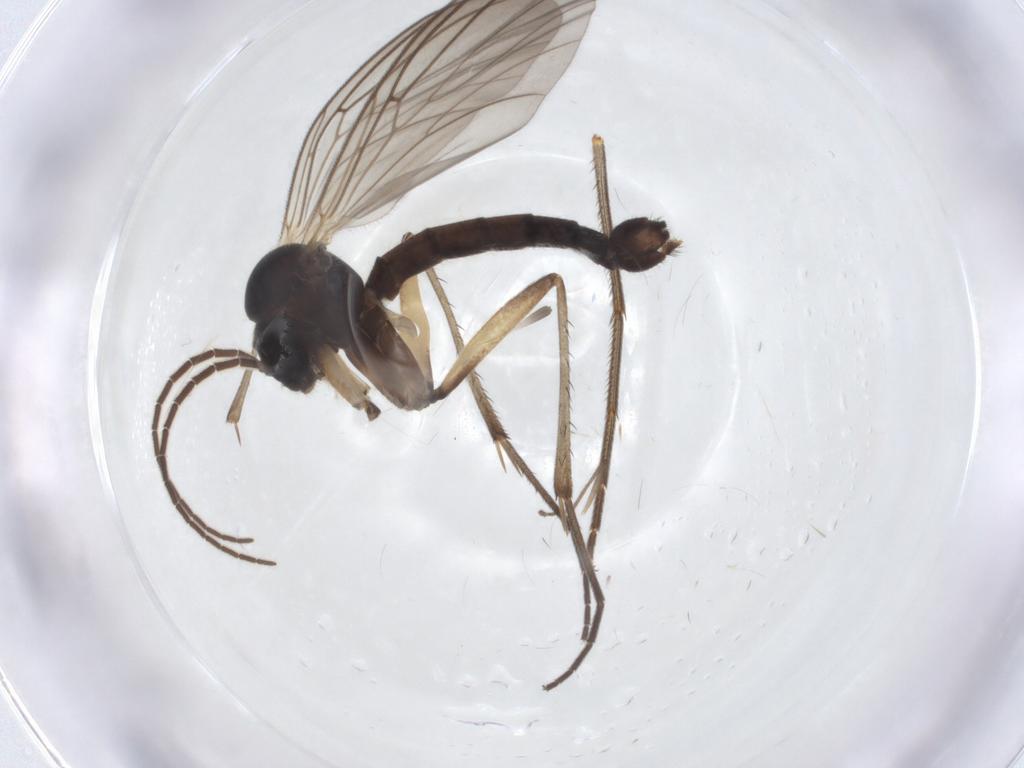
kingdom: Animalia
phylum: Arthropoda
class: Insecta
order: Diptera
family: Mycetophilidae
